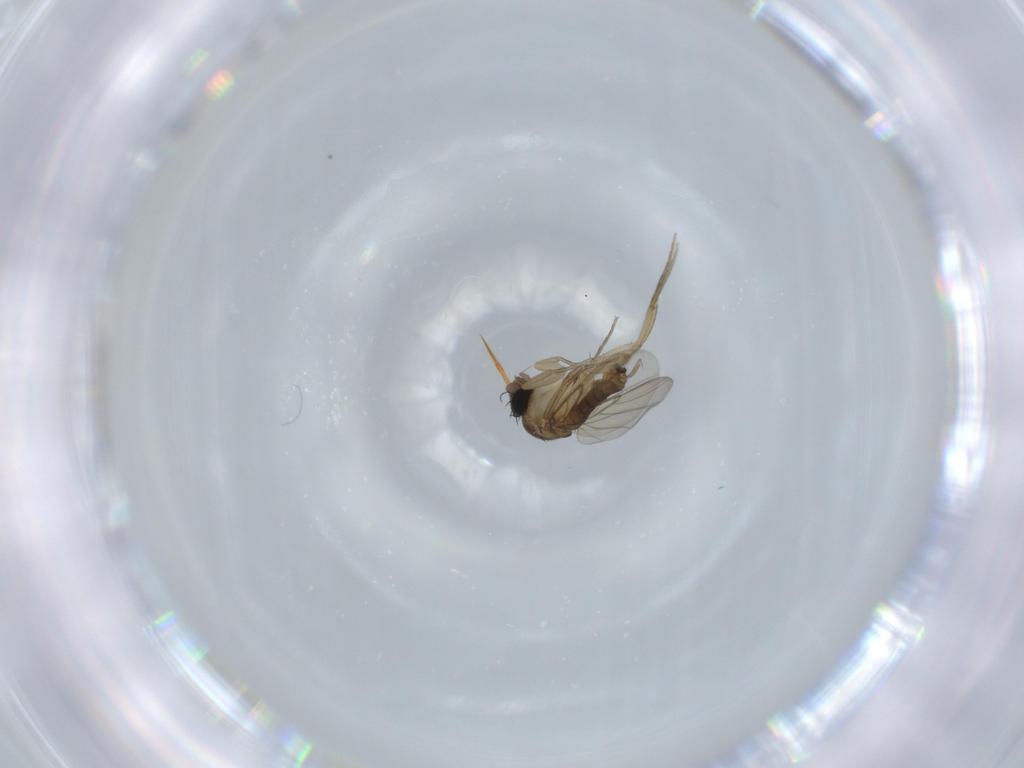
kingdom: Animalia
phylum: Arthropoda
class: Insecta
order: Diptera
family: Phoridae
